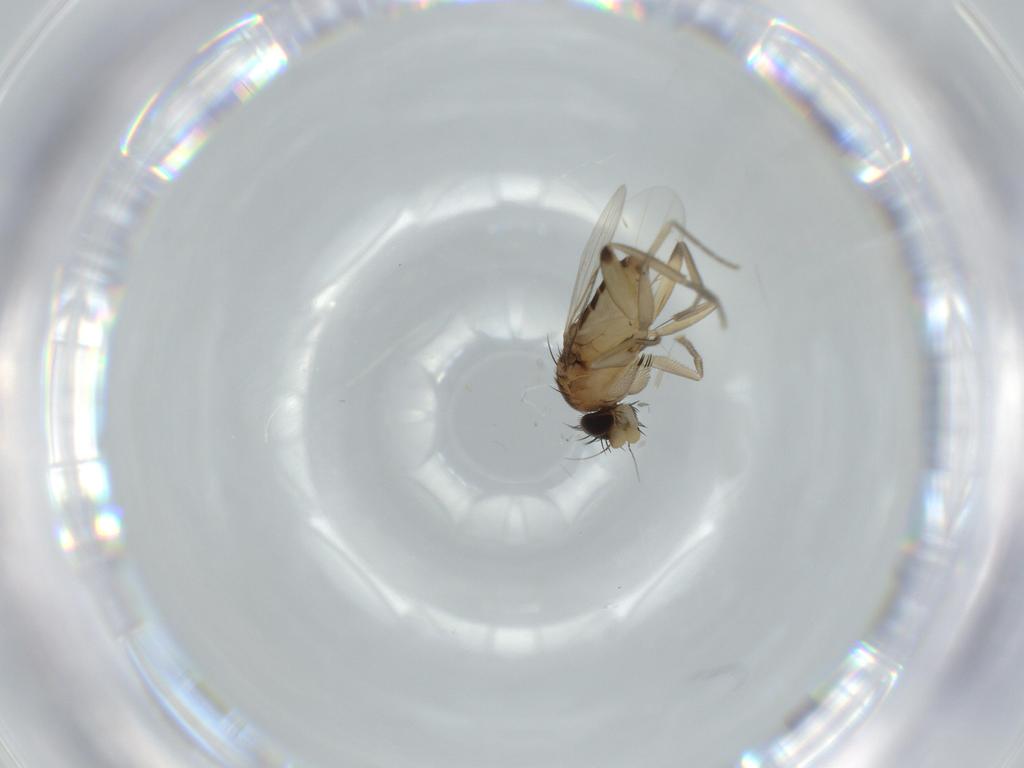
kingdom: Animalia
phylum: Arthropoda
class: Insecta
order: Diptera
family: Phoridae
